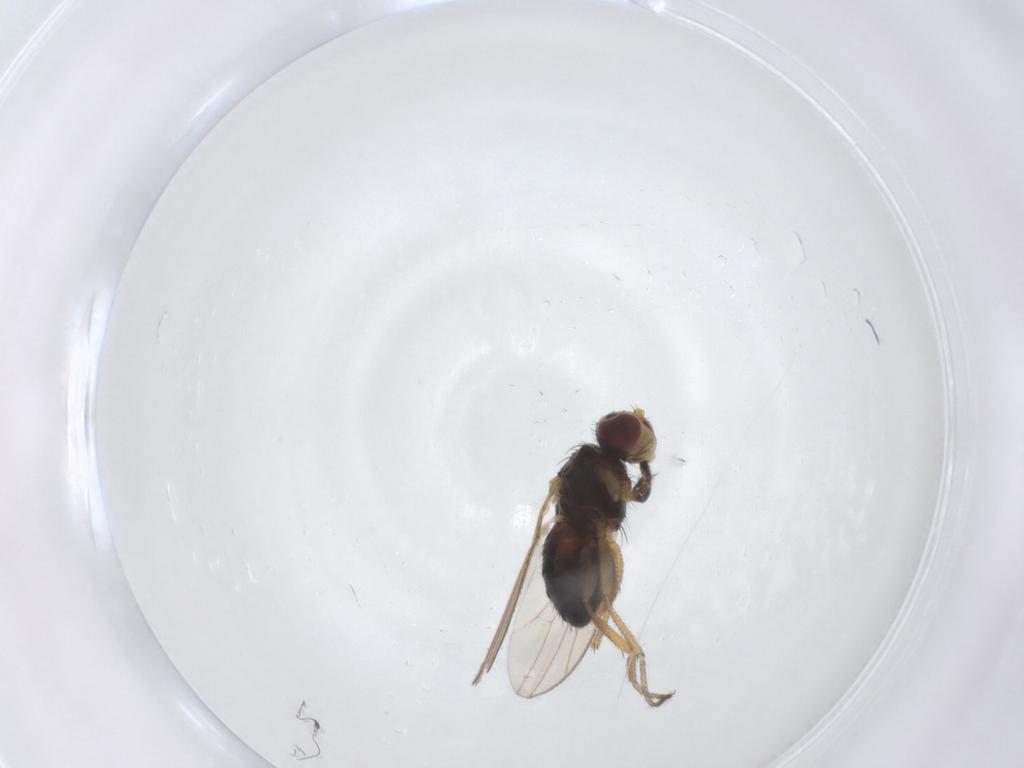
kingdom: Animalia
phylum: Arthropoda
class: Insecta
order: Diptera
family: Heleomyzidae
